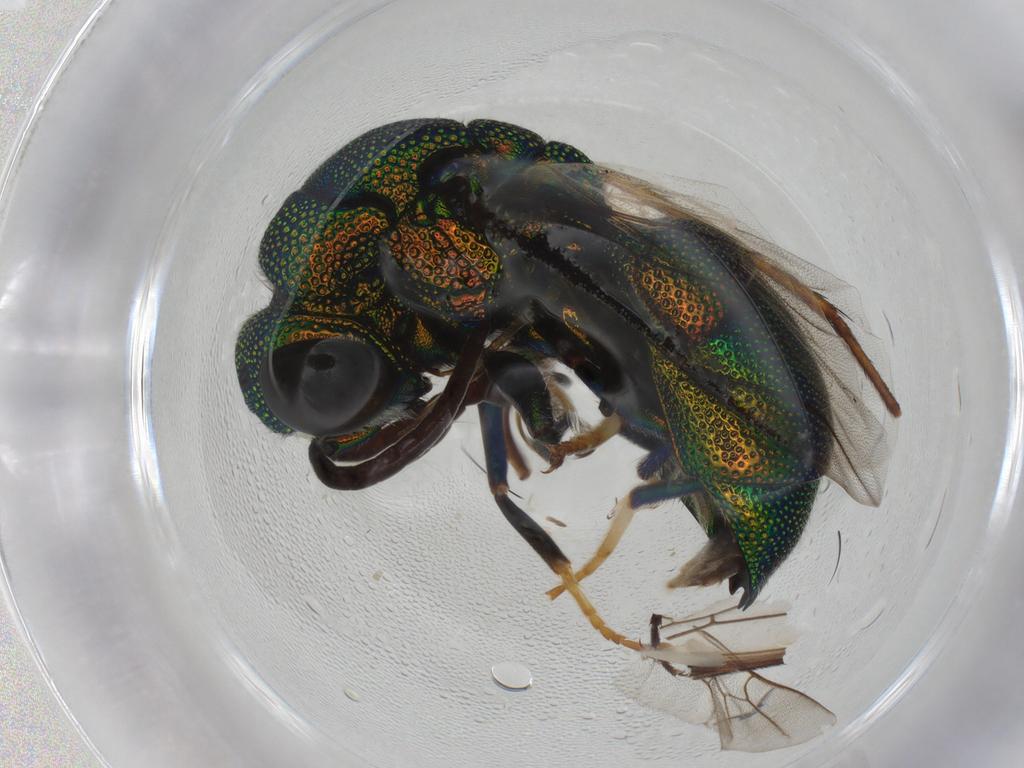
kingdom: Animalia
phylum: Arthropoda
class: Insecta
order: Hymenoptera
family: Chrysididae
